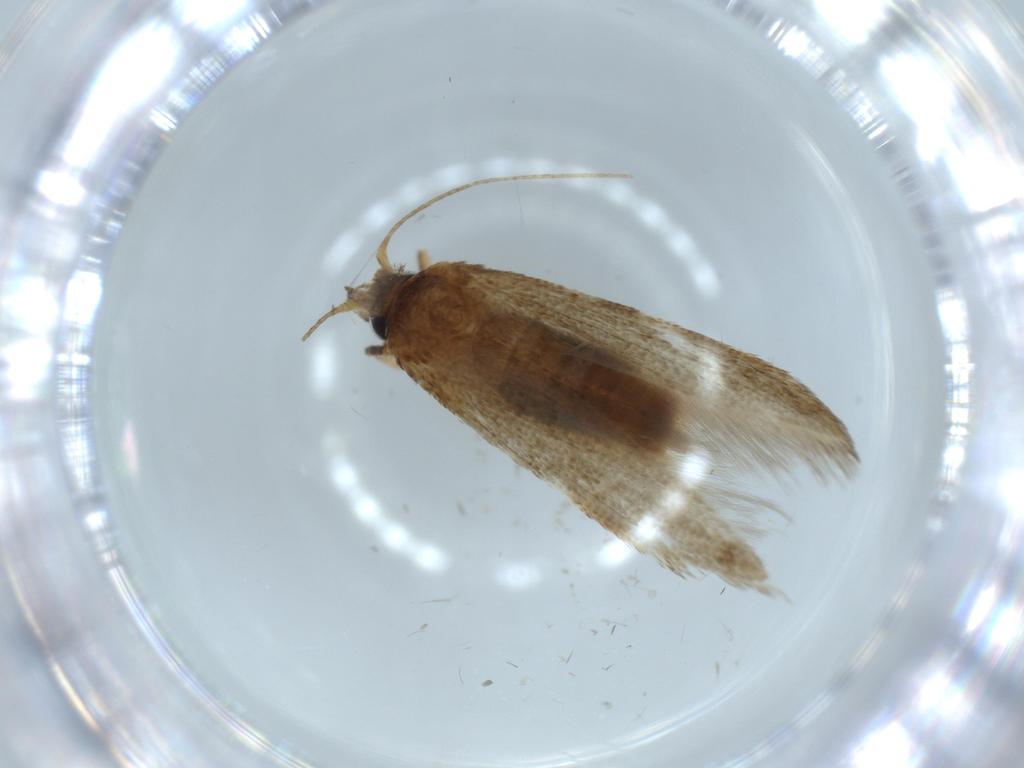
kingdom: Animalia
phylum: Arthropoda
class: Insecta
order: Lepidoptera
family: Blastobasidae
